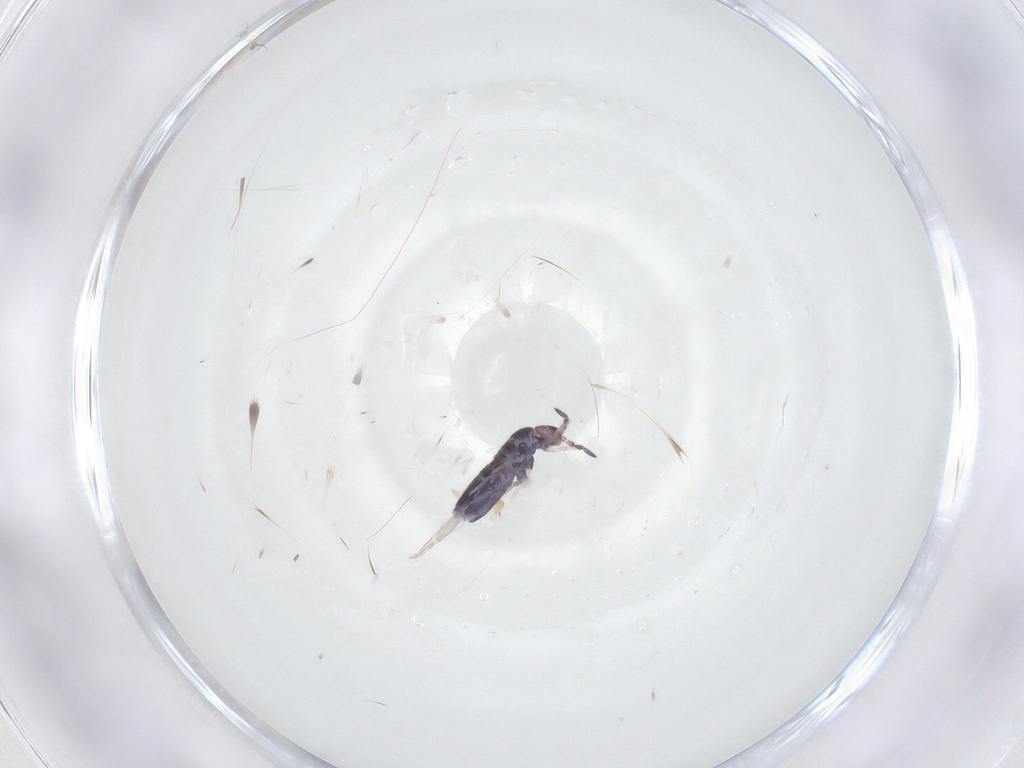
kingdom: Animalia
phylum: Arthropoda
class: Collembola
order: Entomobryomorpha
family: Entomobryidae
